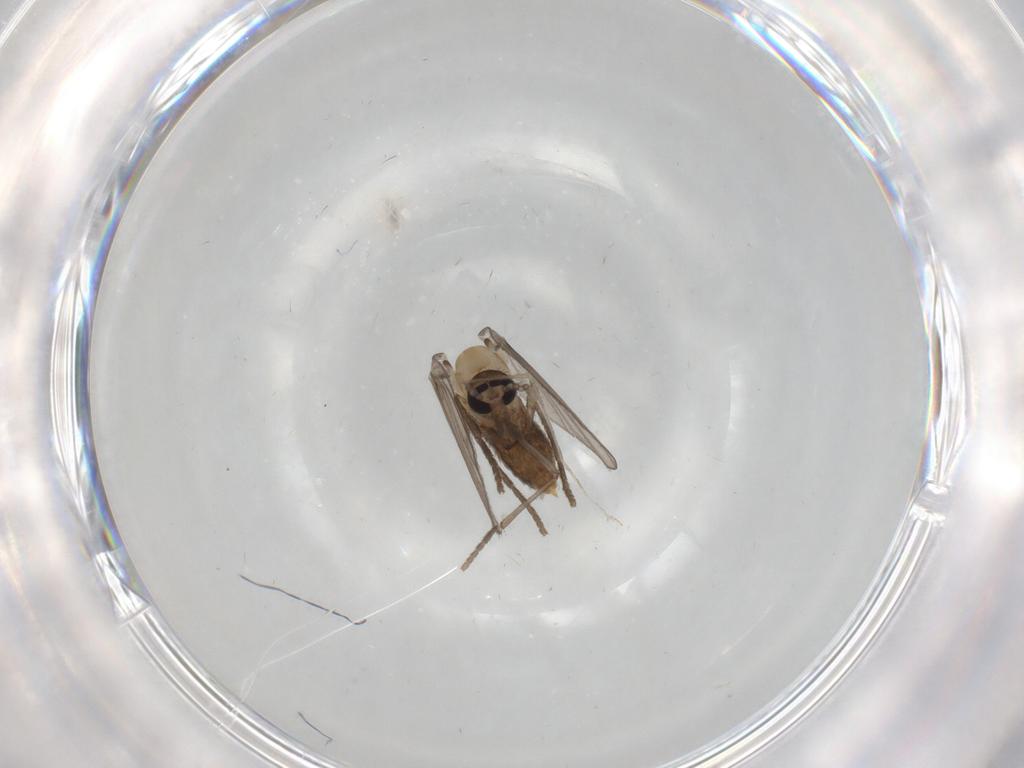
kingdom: Animalia
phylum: Arthropoda
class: Insecta
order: Diptera
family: Psychodidae
